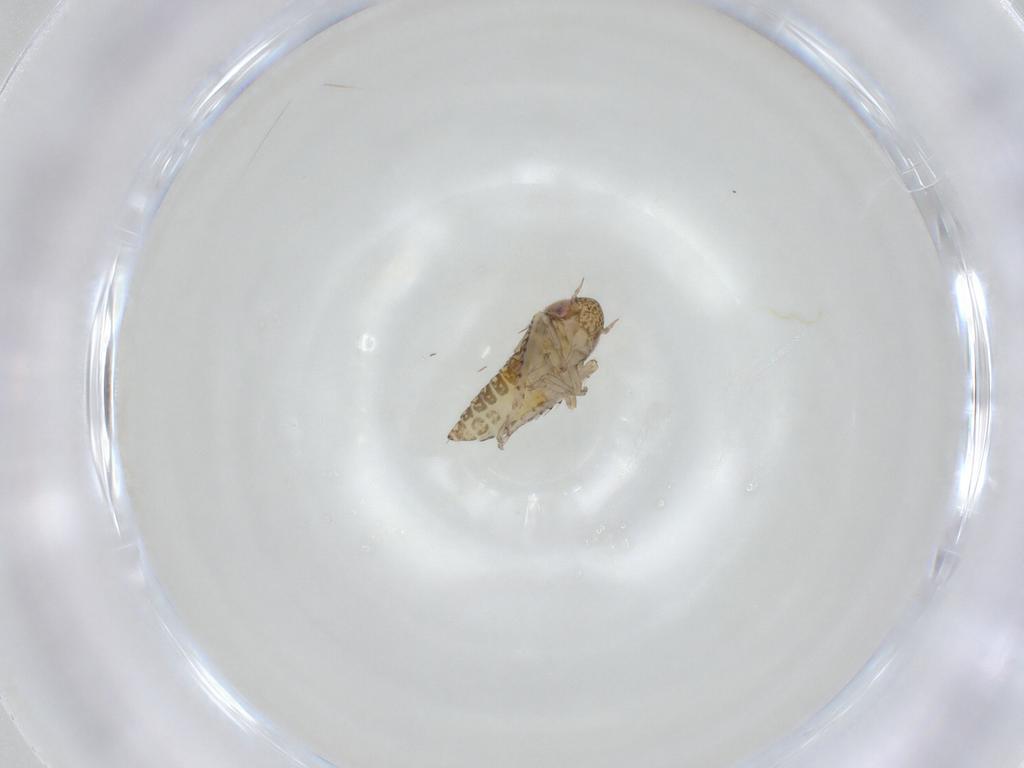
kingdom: Animalia
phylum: Arthropoda
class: Insecta
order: Hemiptera
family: Cicadellidae
